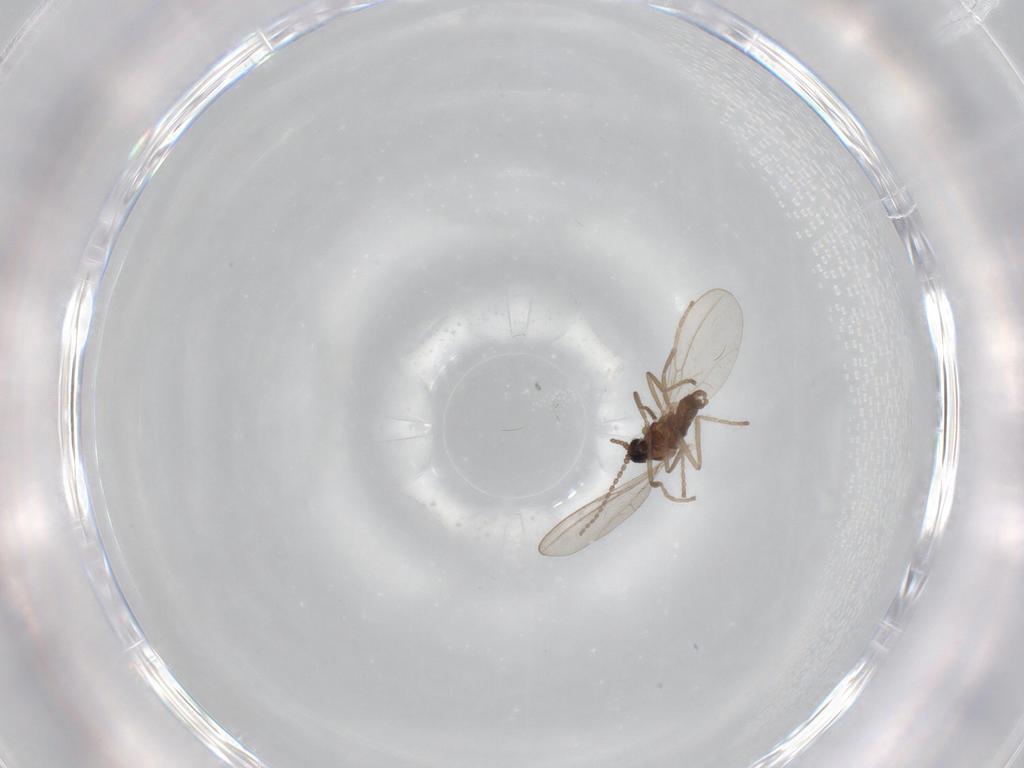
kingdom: Animalia
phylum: Arthropoda
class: Insecta
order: Diptera
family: Cecidomyiidae
